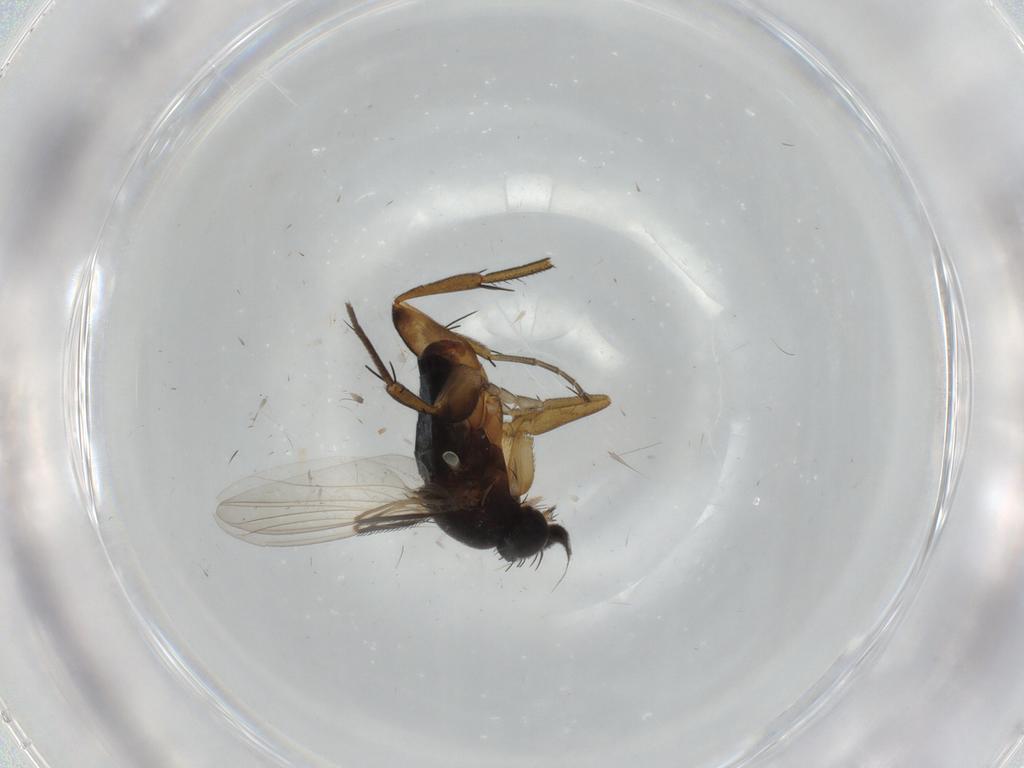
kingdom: Animalia
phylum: Arthropoda
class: Insecta
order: Diptera
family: Phoridae
